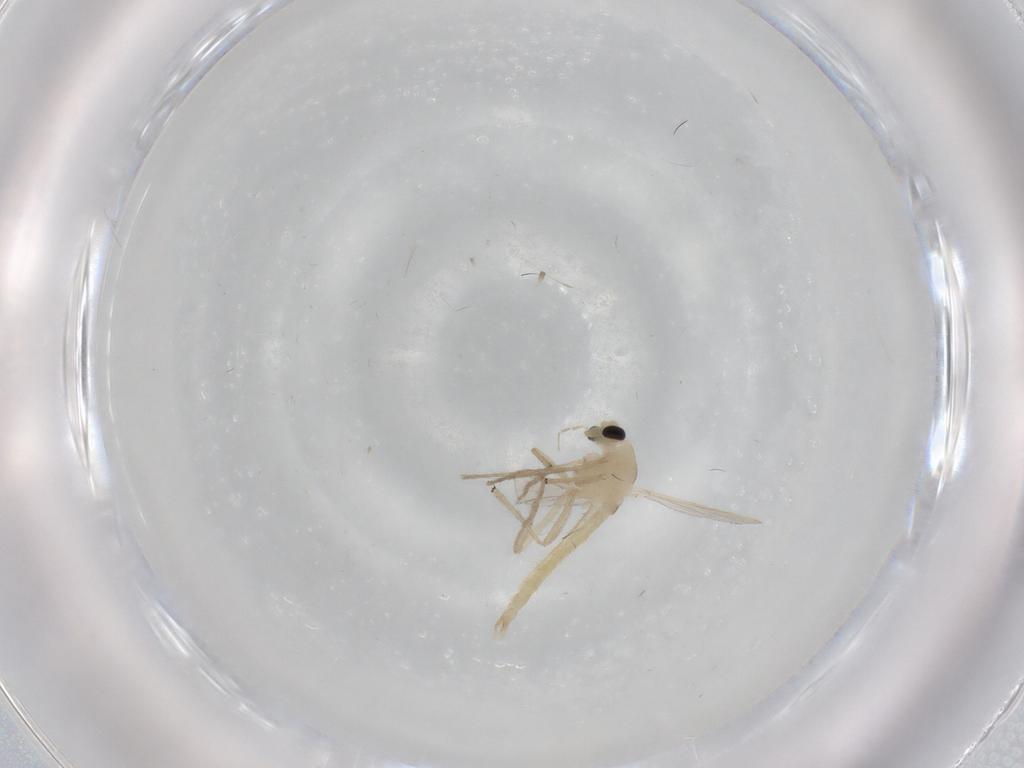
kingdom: Animalia
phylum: Arthropoda
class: Insecta
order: Diptera
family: Chironomidae
